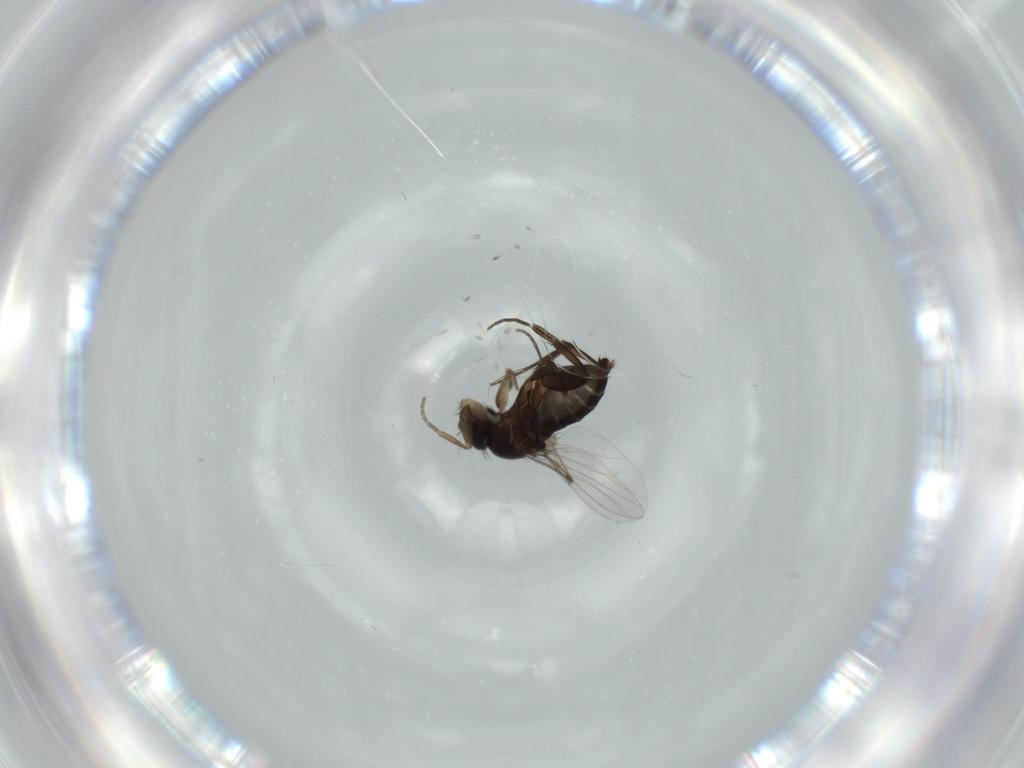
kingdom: Animalia
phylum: Arthropoda
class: Insecta
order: Diptera
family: Phoridae
